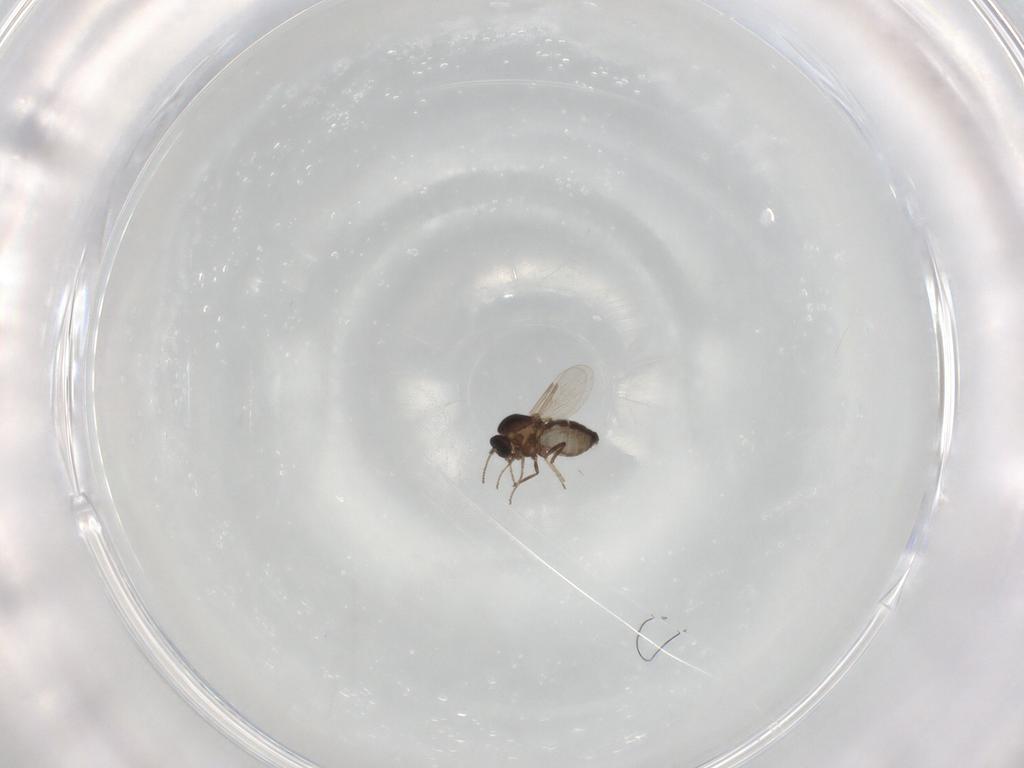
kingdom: Animalia
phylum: Arthropoda
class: Insecta
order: Diptera
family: Ceratopogonidae
